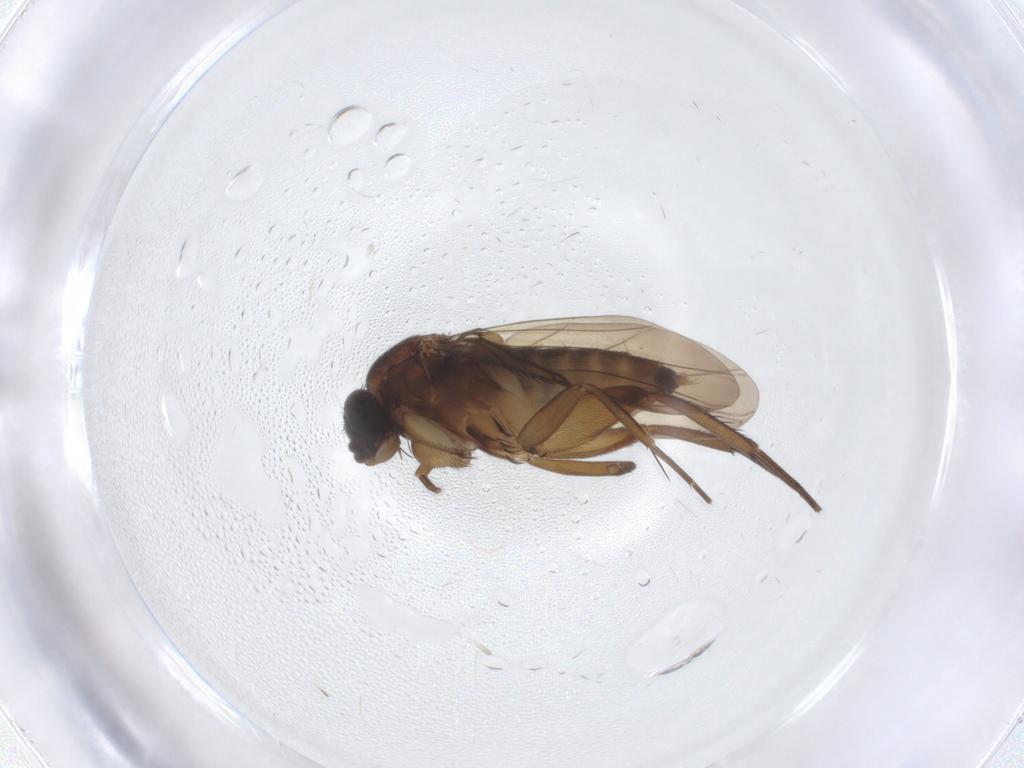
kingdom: Animalia
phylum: Arthropoda
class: Insecta
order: Diptera
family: Phoridae
